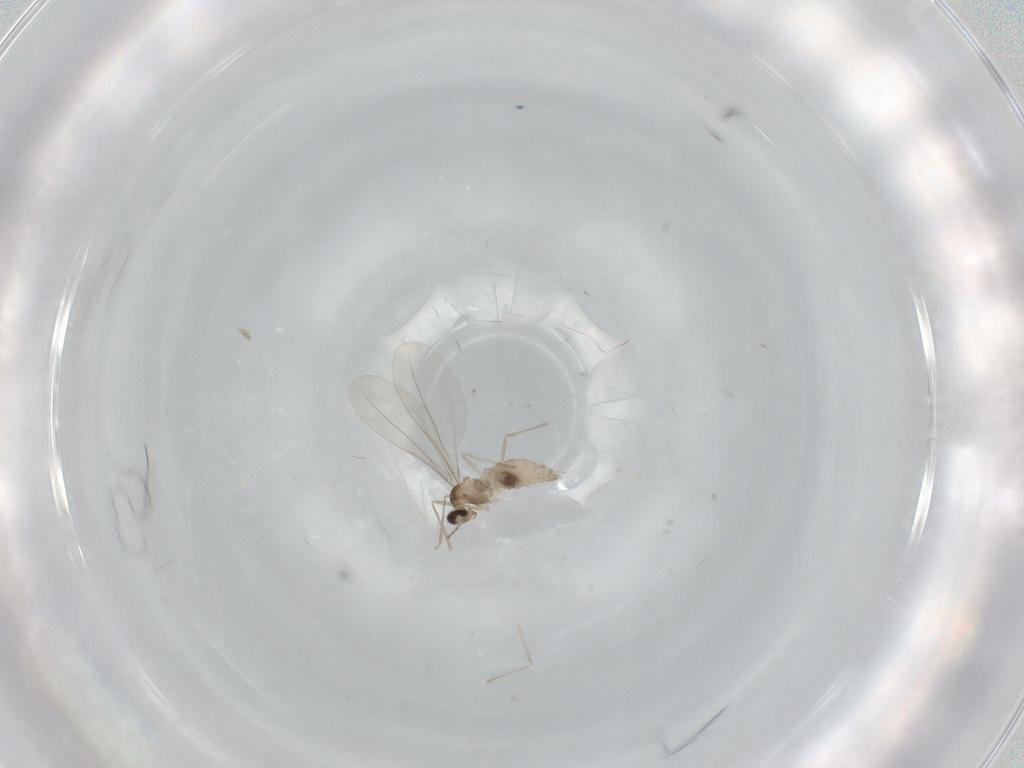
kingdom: Animalia
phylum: Arthropoda
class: Insecta
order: Diptera
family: Cecidomyiidae
